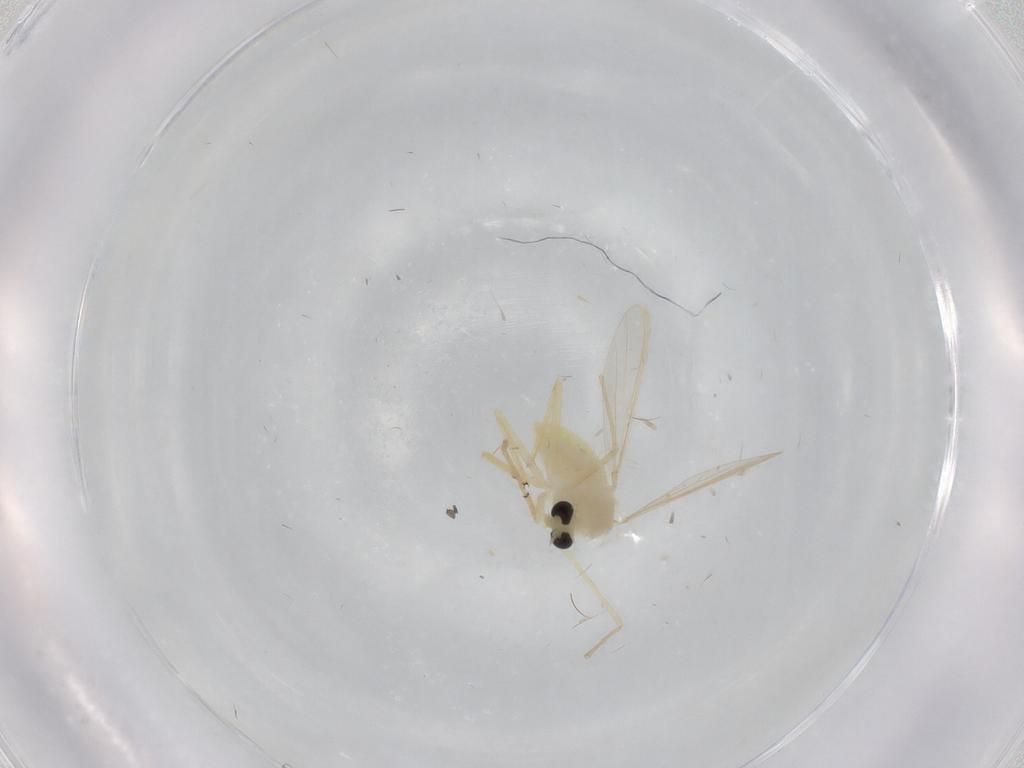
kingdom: Animalia
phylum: Arthropoda
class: Insecta
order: Diptera
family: Chironomidae
